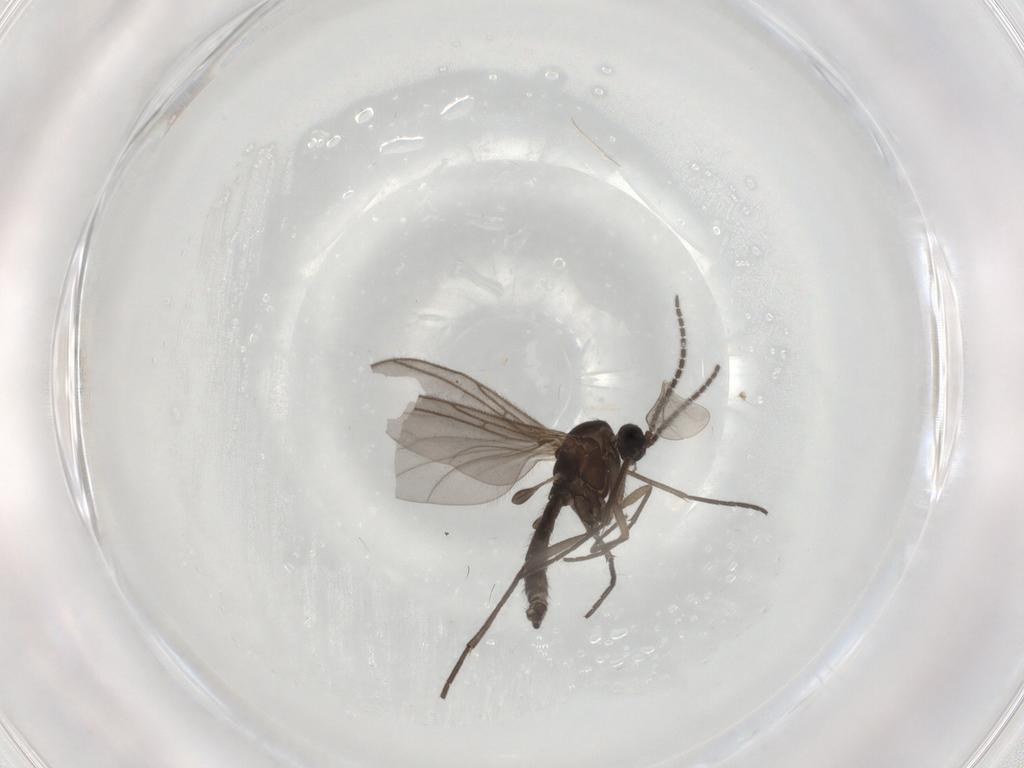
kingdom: Animalia
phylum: Arthropoda
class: Insecta
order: Diptera
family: Sciaridae
